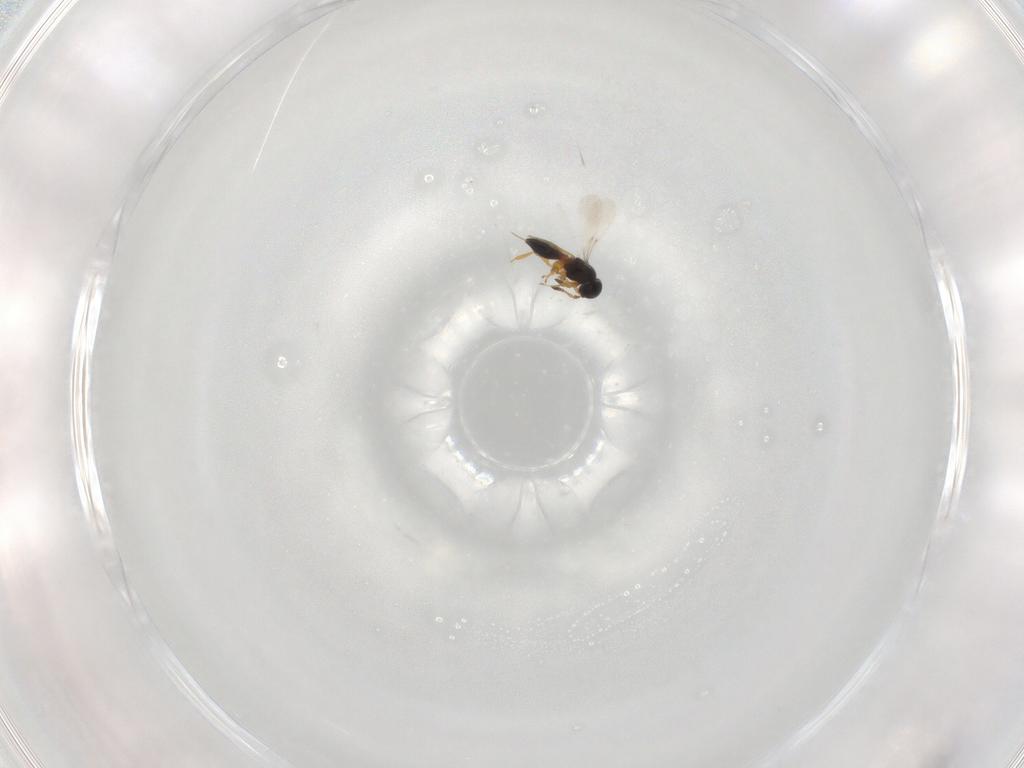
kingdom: Animalia
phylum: Arthropoda
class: Insecta
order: Hymenoptera
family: Platygastridae
